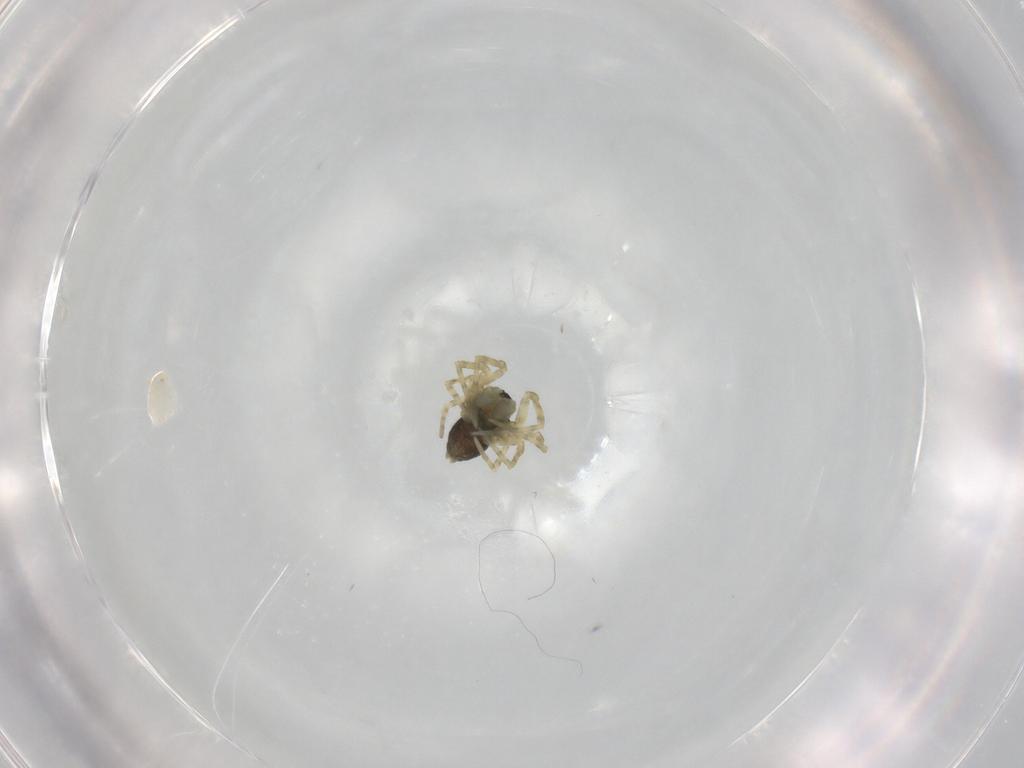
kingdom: Animalia
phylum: Arthropoda
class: Arachnida
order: Araneae
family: Linyphiidae
